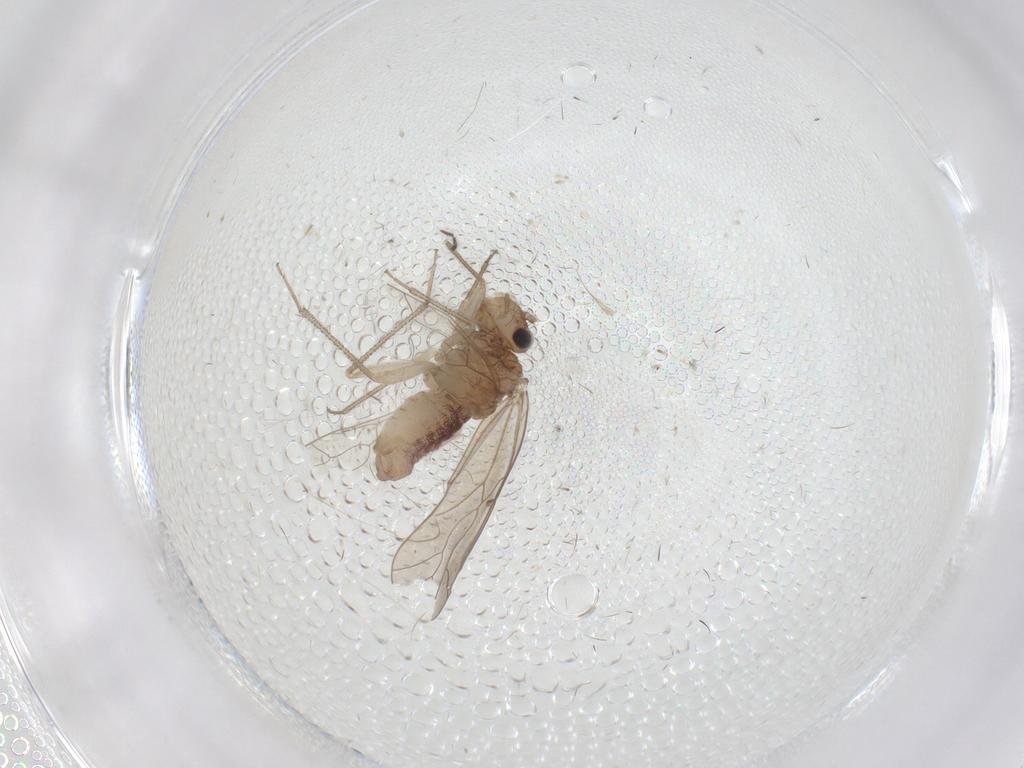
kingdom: Animalia
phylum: Arthropoda
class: Insecta
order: Psocodea
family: Caeciliusidae
